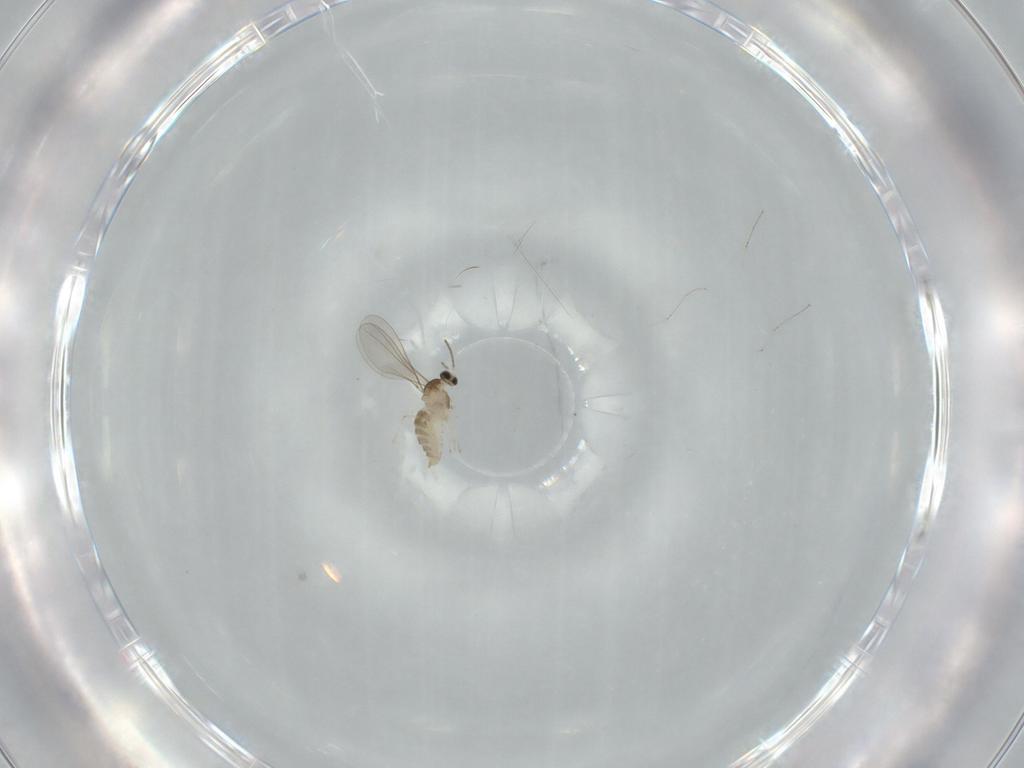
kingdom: Animalia
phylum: Arthropoda
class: Insecta
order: Diptera
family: Cecidomyiidae
